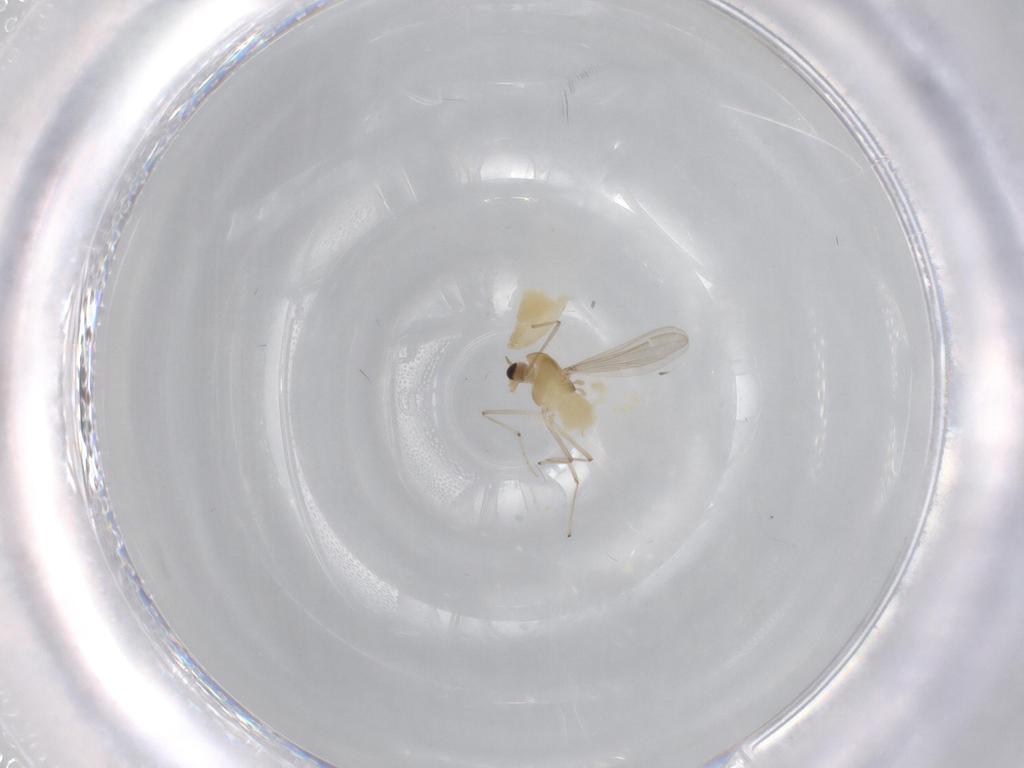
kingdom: Animalia
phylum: Arthropoda
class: Insecta
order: Diptera
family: Chironomidae
